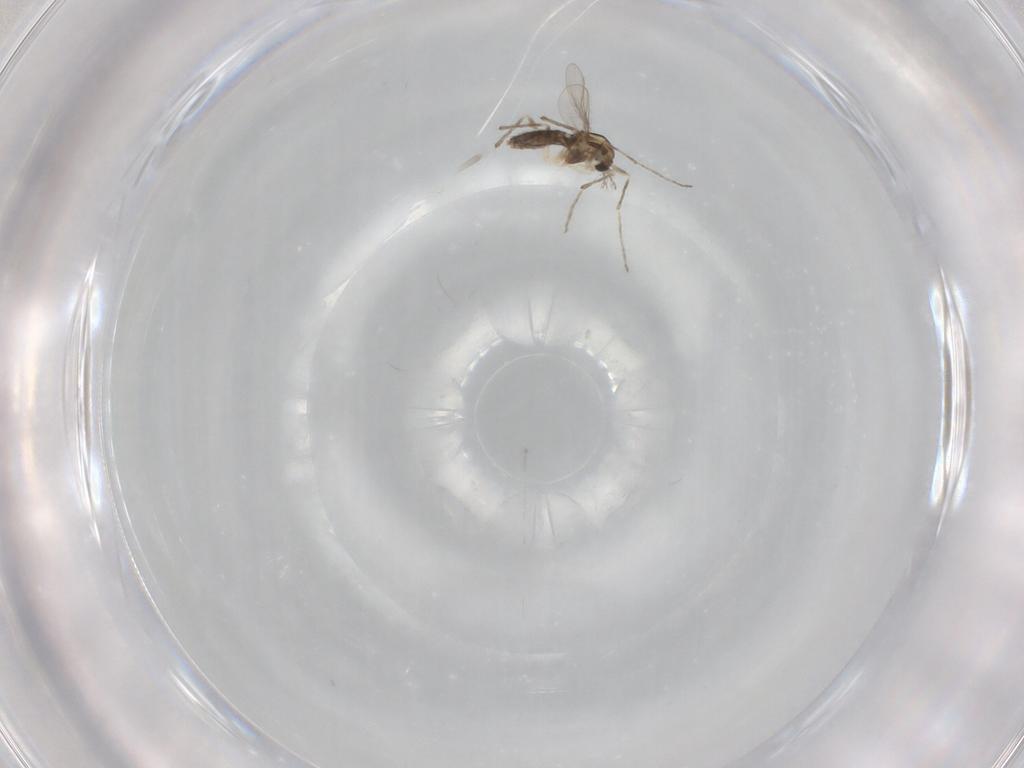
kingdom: Animalia
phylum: Arthropoda
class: Insecta
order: Diptera
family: Chironomidae
